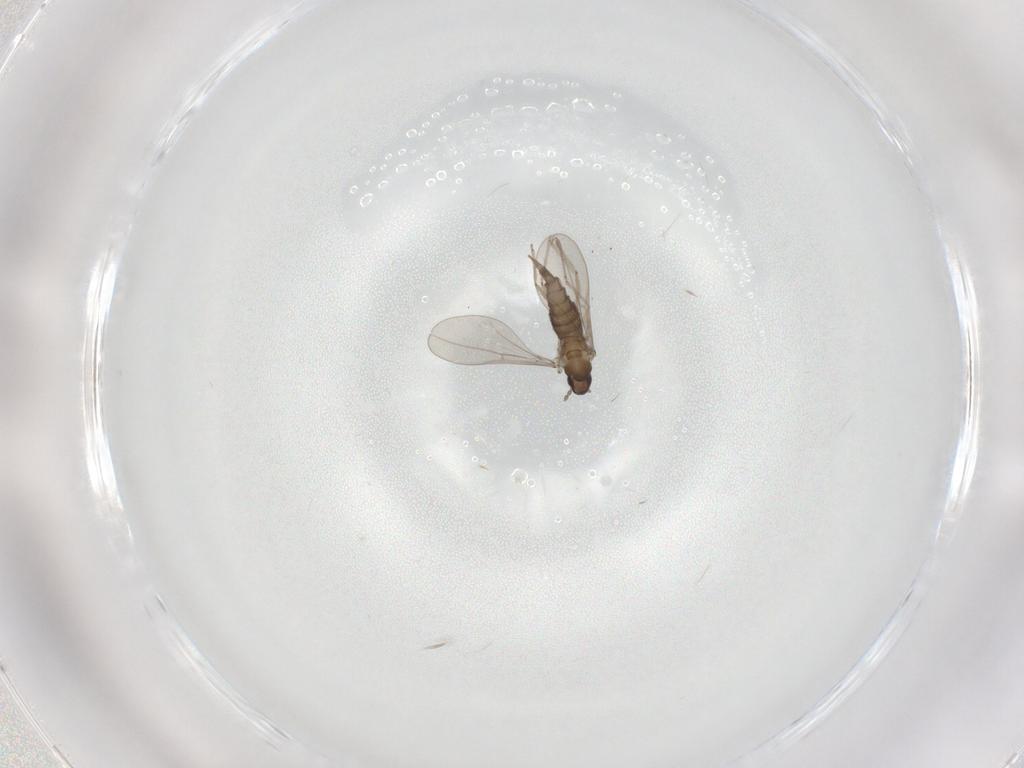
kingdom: Animalia
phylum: Arthropoda
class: Insecta
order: Diptera
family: Cecidomyiidae
